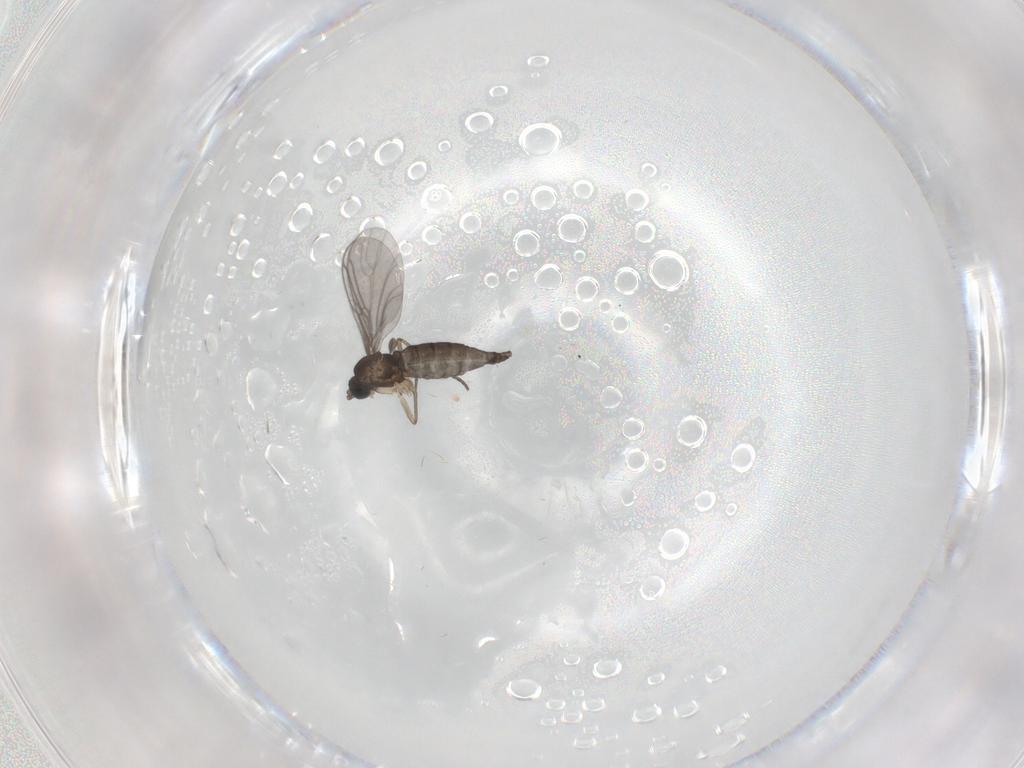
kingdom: Animalia
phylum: Arthropoda
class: Insecta
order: Diptera
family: Sciaridae
